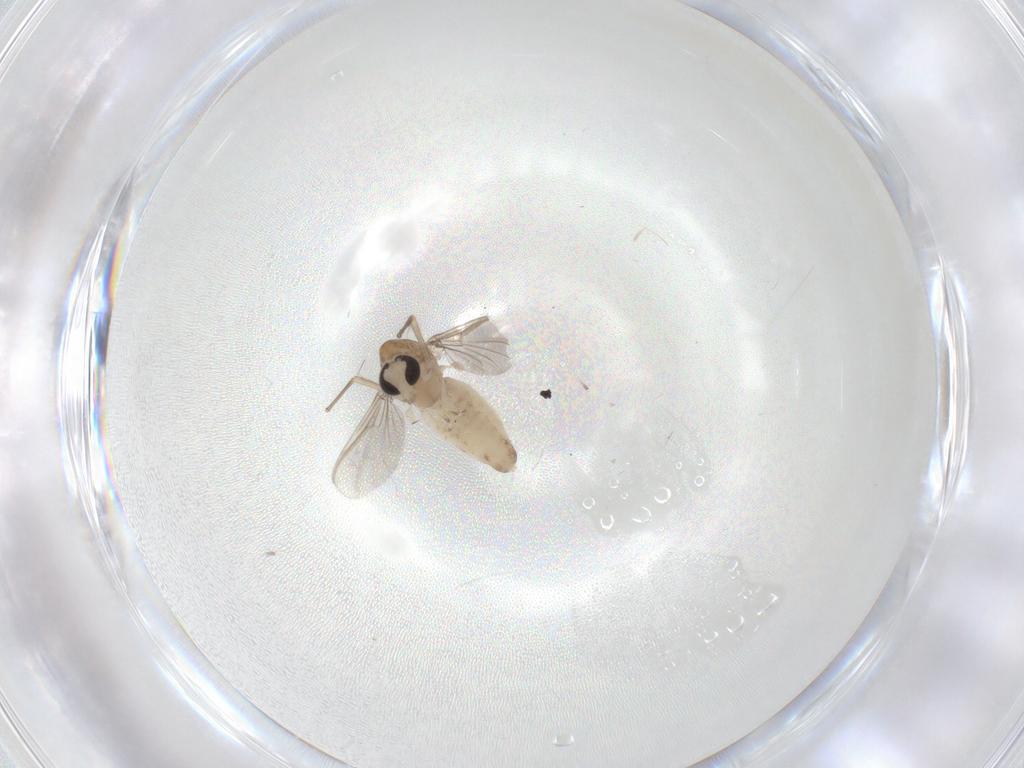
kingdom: Animalia
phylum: Arthropoda
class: Insecta
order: Diptera
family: Chironomidae
